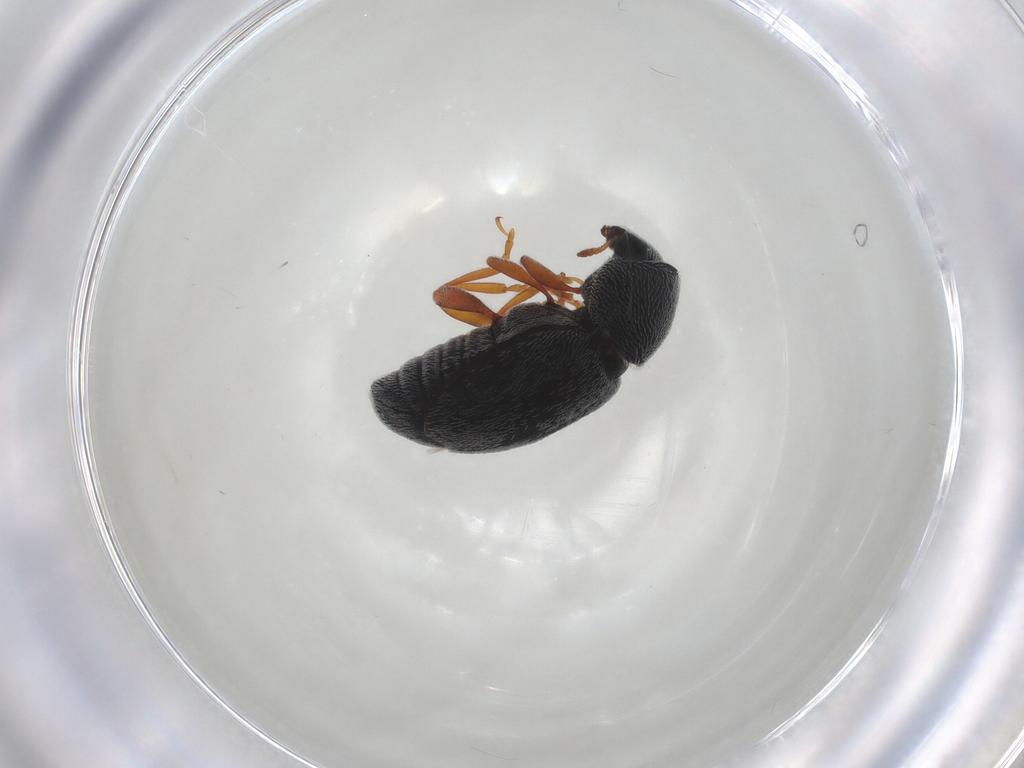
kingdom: Animalia
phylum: Arthropoda
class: Insecta
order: Coleoptera
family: Anthribidae
